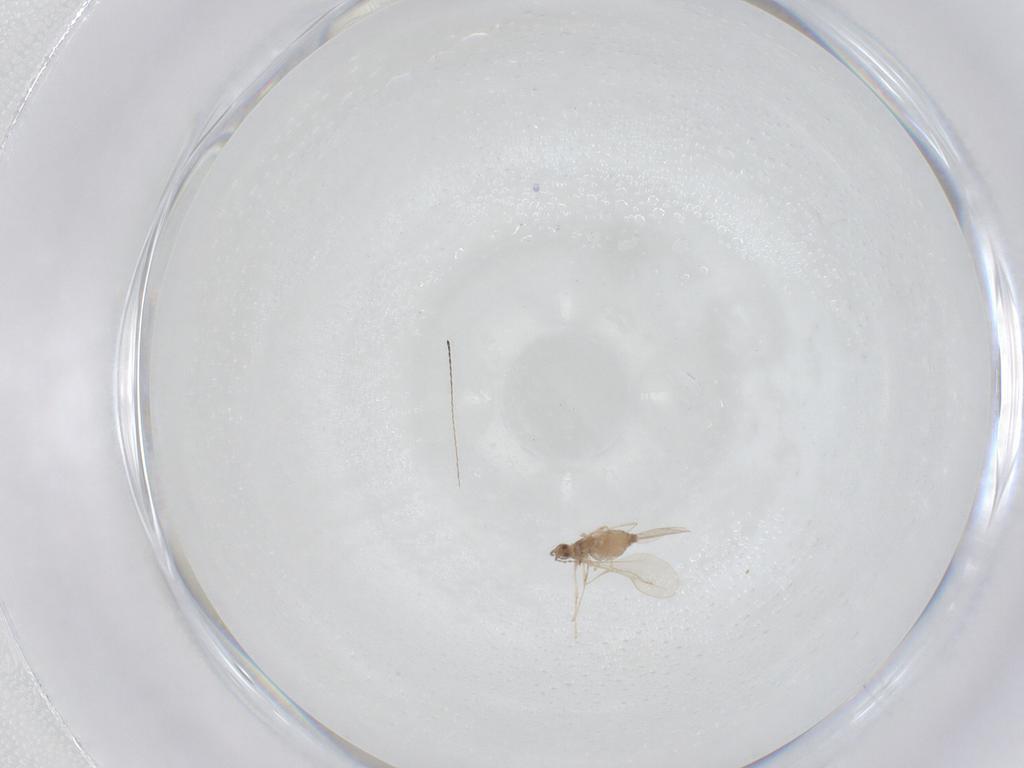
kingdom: Animalia
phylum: Arthropoda
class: Insecta
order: Diptera
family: Cecidomyiidae
